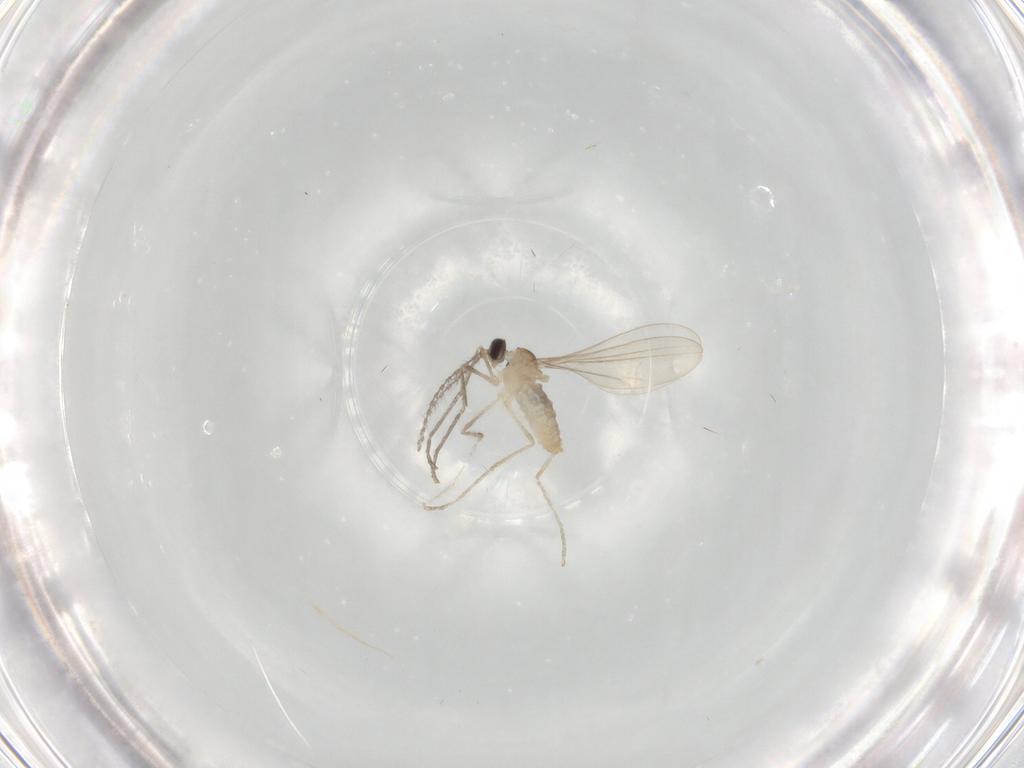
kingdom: Animalia
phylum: Arthropoda
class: Insecta
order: Diptera
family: Cecidomyiidae
